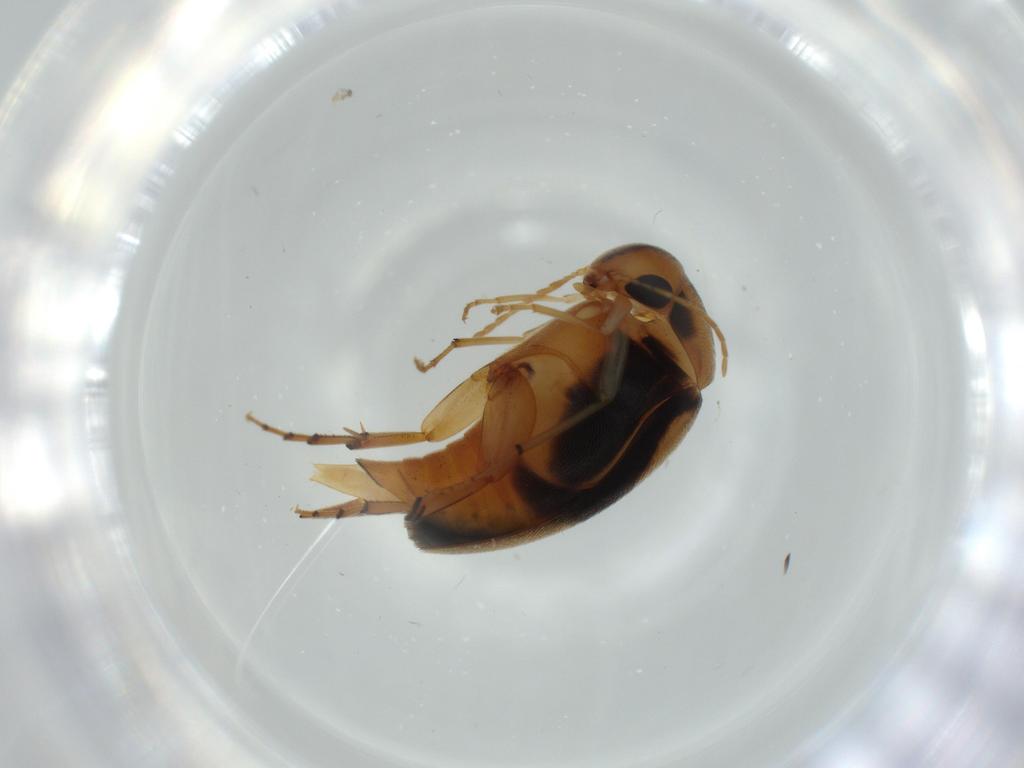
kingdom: Animalia
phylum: Arthropoda
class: Insecta
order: Coleoptera
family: Mordellidae
